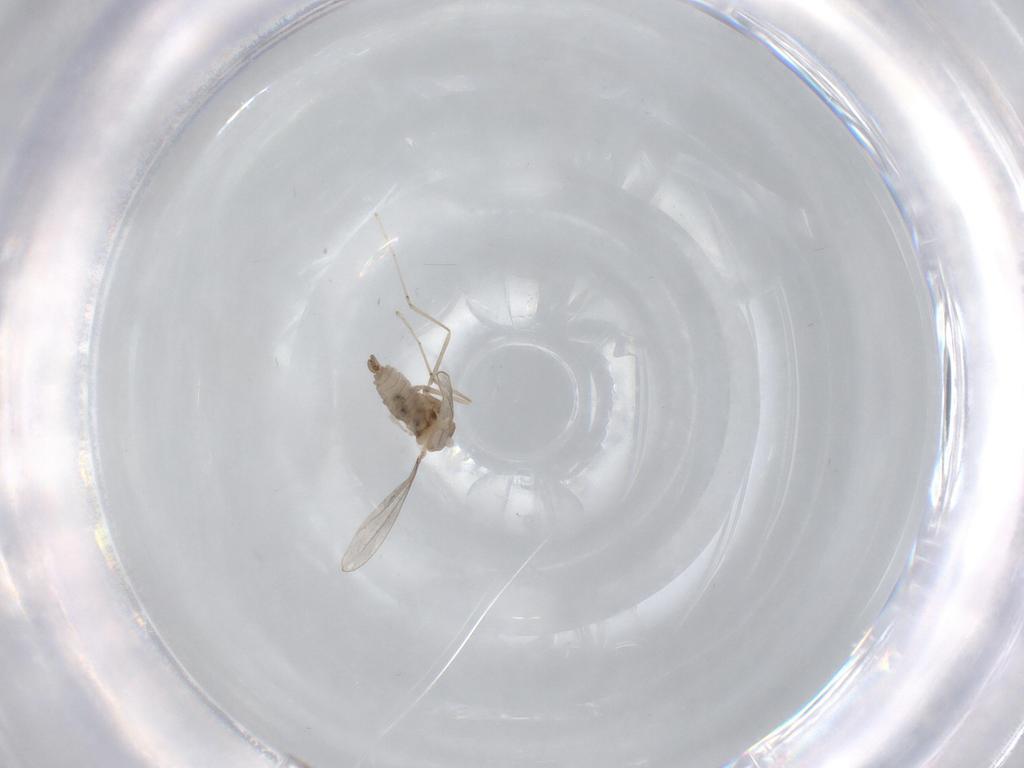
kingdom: Animalia
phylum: Arthropoda
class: Insecta
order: Diptera
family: Cecidomyiidae
